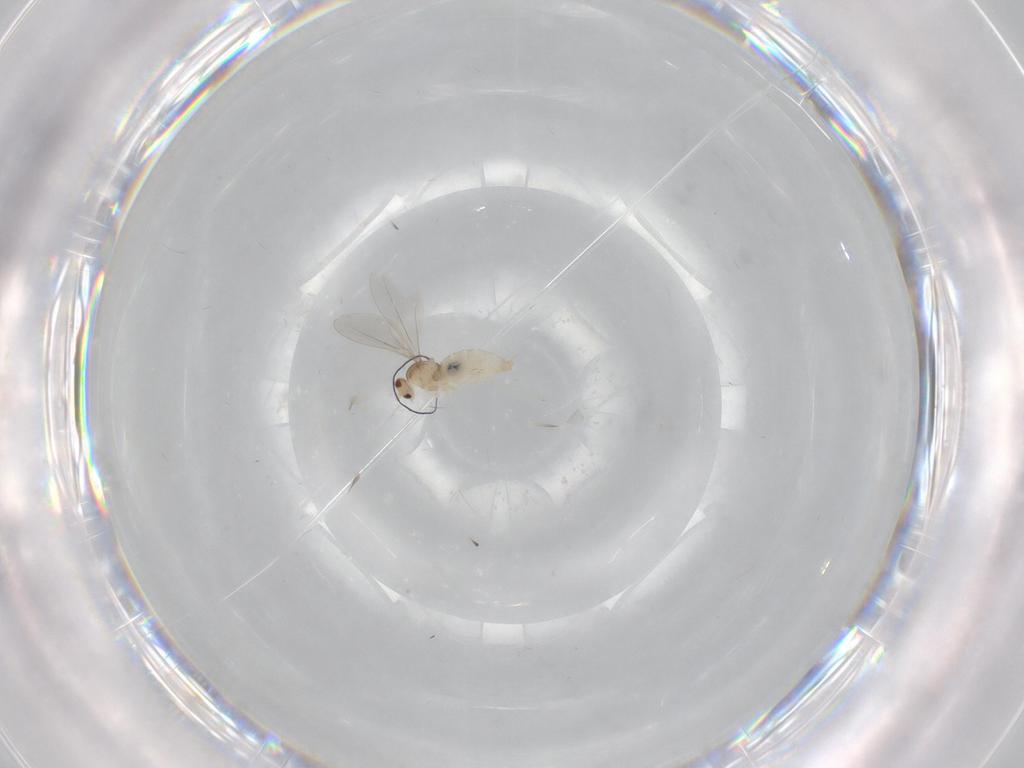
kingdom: Animalia
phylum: Arthropoda
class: Insecta
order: Diptera
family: Cecidomyiidae
